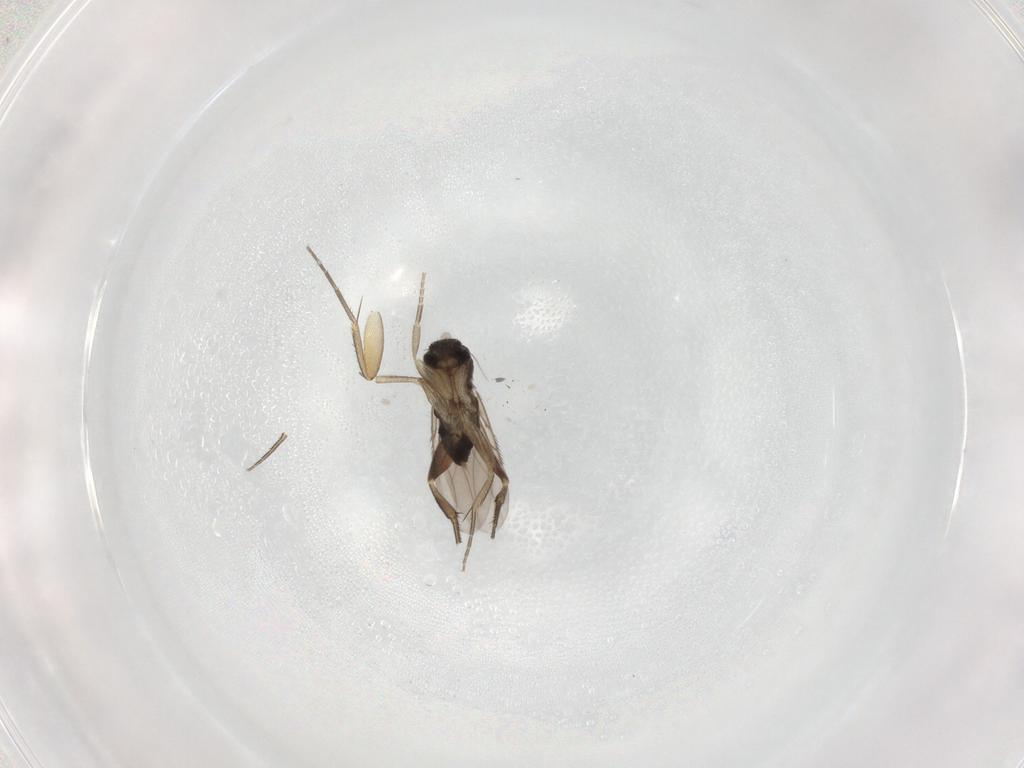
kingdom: Animalia
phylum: Arthropoda
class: Insecta
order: Diptera
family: Phoridae
